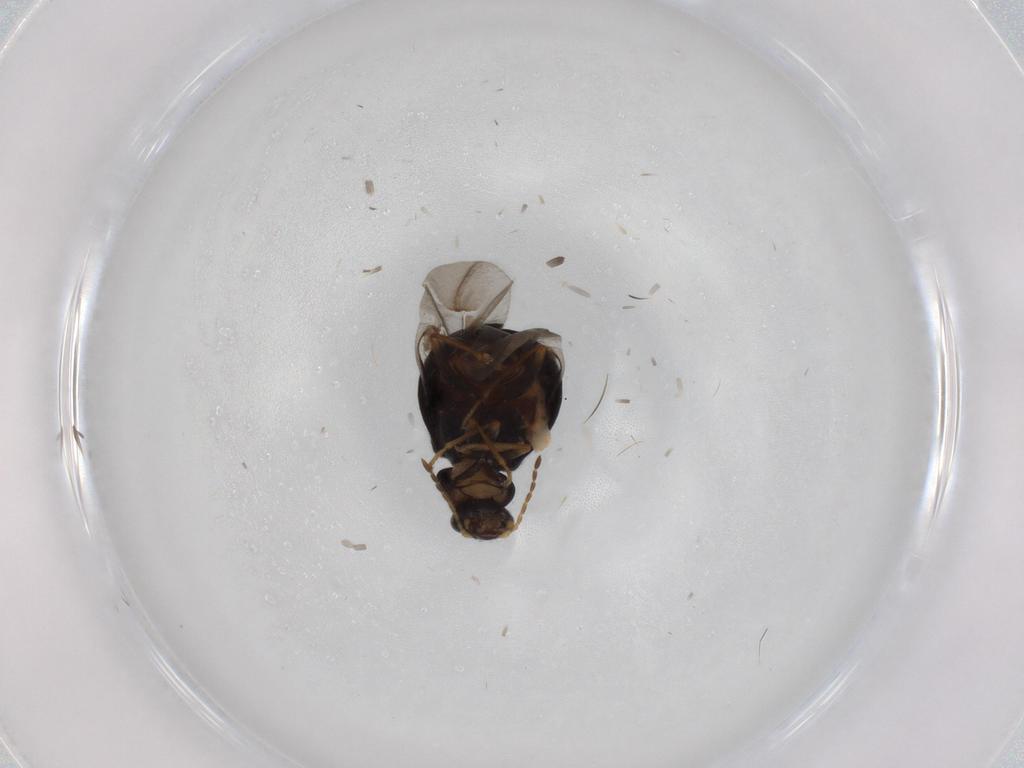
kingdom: Animalia
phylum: Arthropoda
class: Insecta
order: Coleoptera
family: Melyridae
